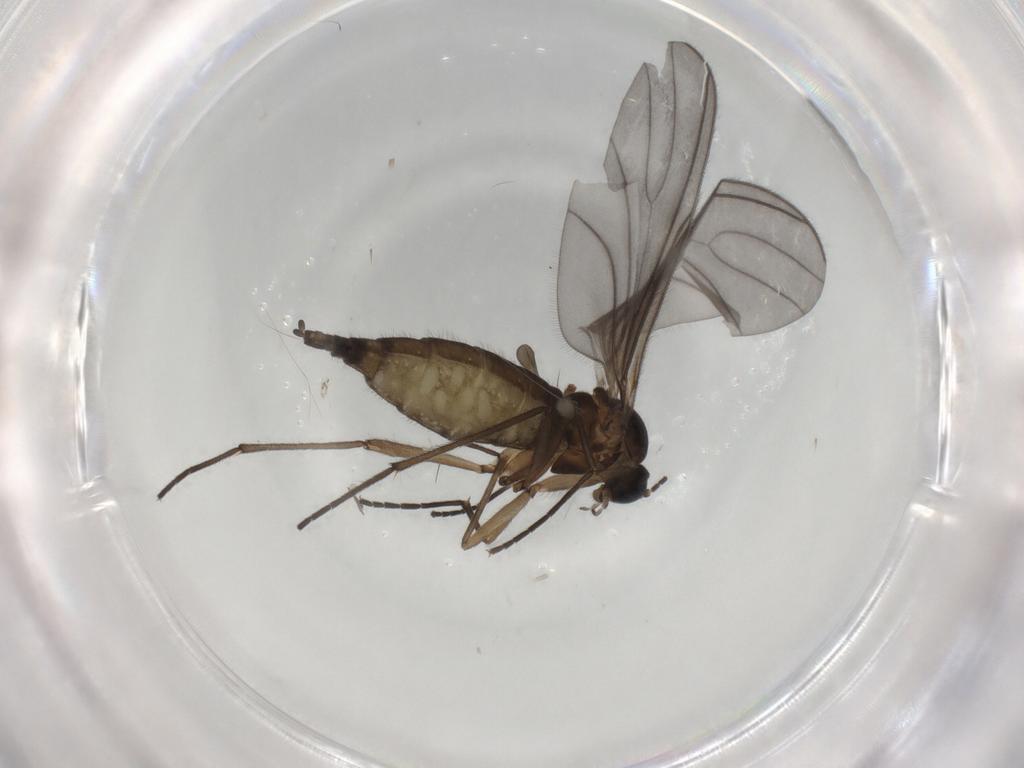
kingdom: Animalia
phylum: Arthropoda
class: Insecta
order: Diptera
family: Sciaridae
